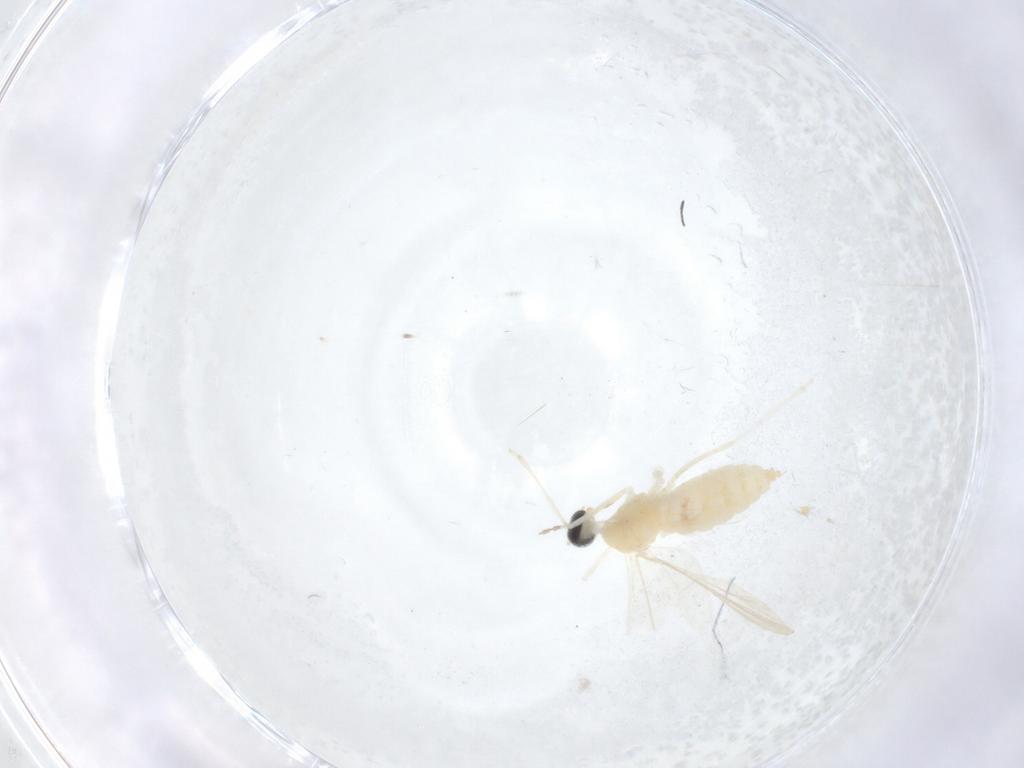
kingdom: Animalia
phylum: Arthropoda
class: Insecta
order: Diptera
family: Cecidomyiidae
